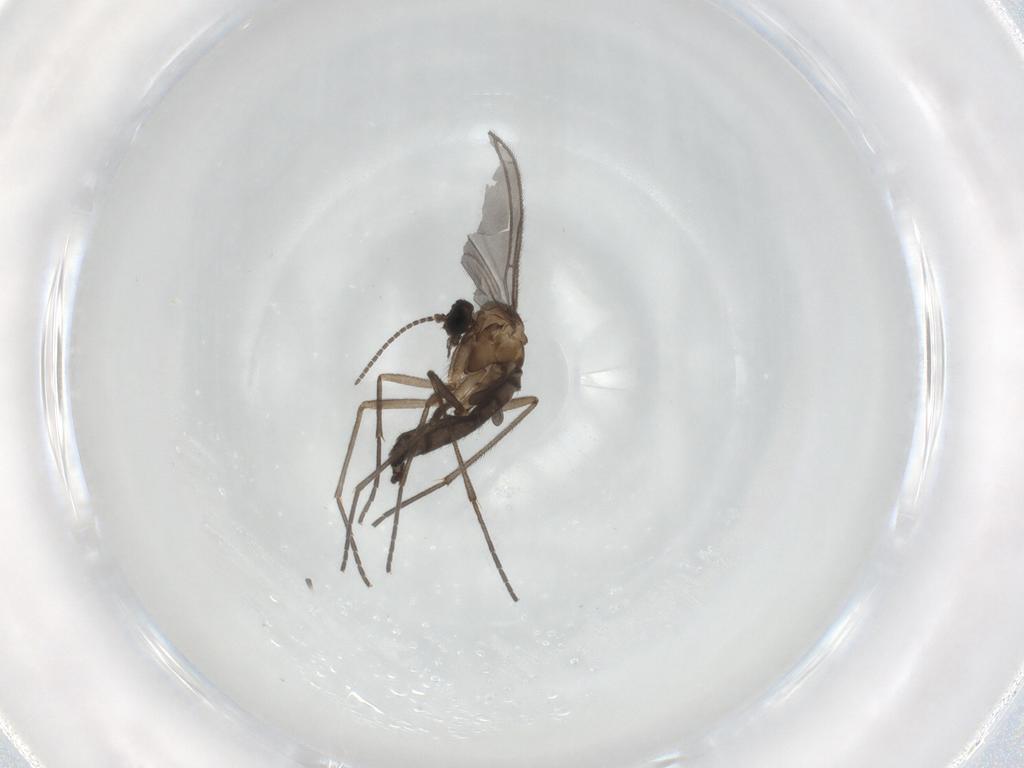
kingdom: Animalia
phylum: Arthropoda
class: Insecta
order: Diptera
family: Sciaridae
